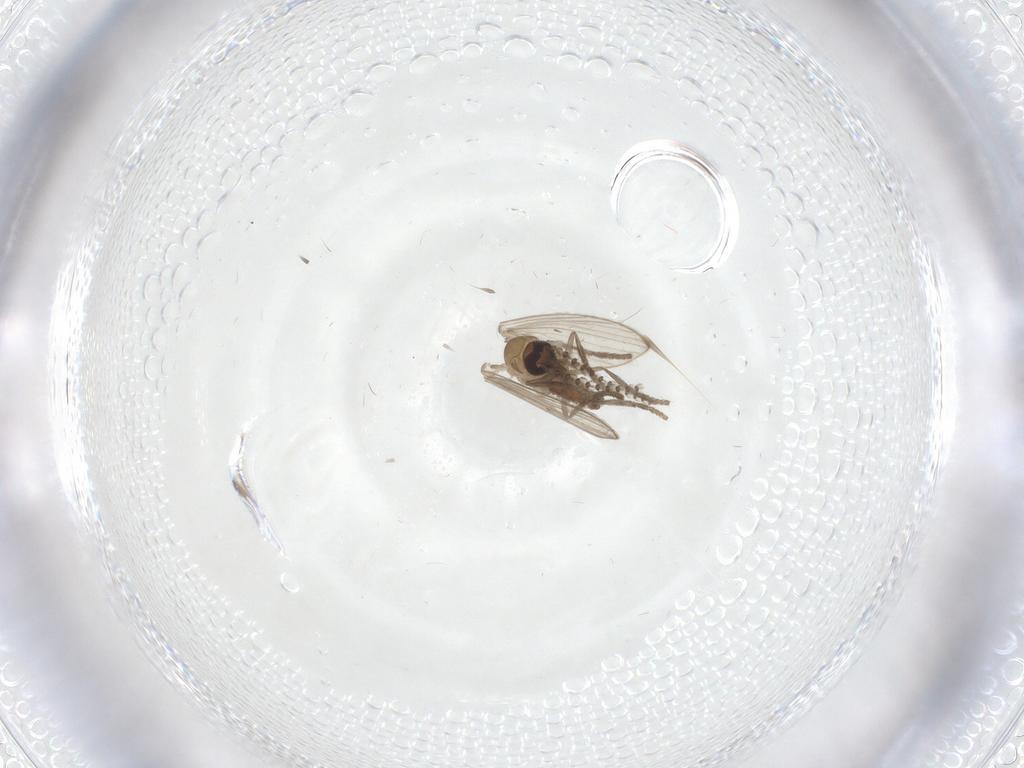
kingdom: Animalia
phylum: Arthropoda
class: Insecta
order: Diptera
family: Psychodidae
